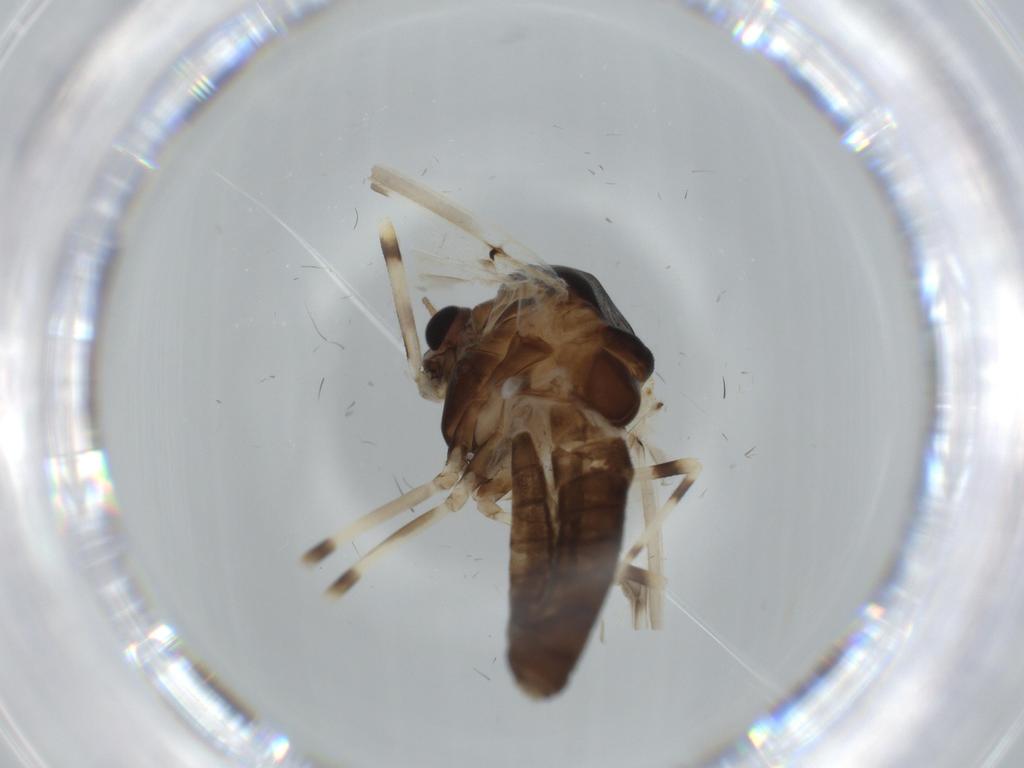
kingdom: Animalia
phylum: Arthropoda
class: Insecta
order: Diptera
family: Chironomidae
